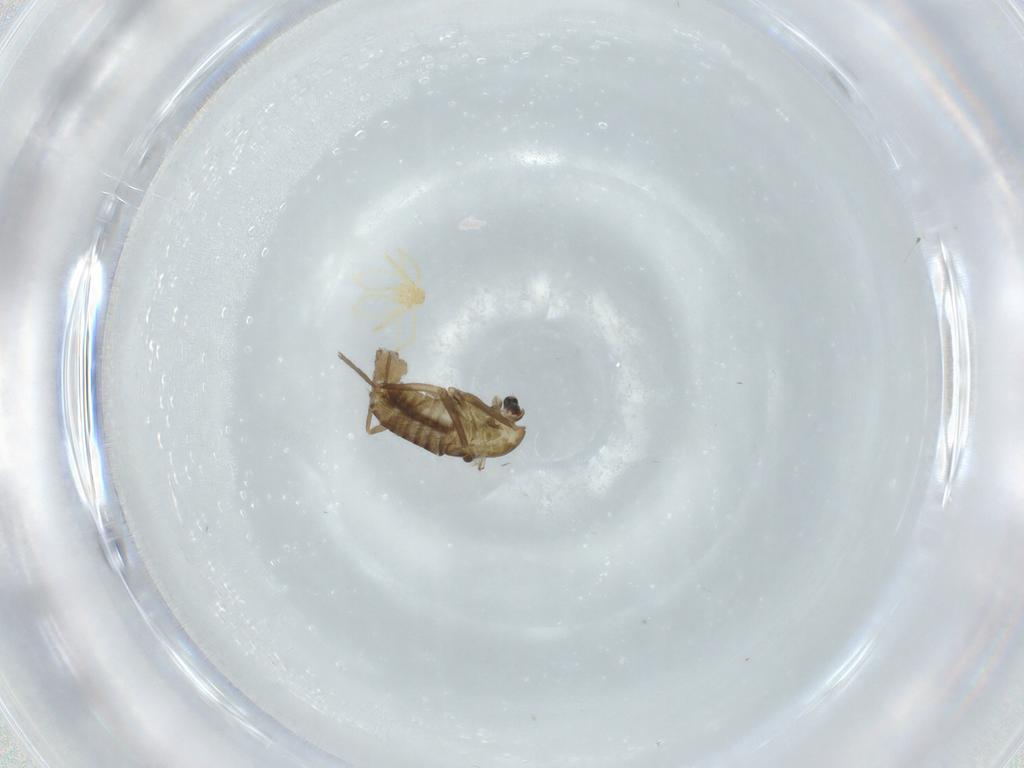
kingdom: Animalia
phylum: Arthropoda
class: Insecta
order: Diptera
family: Chironomidae
